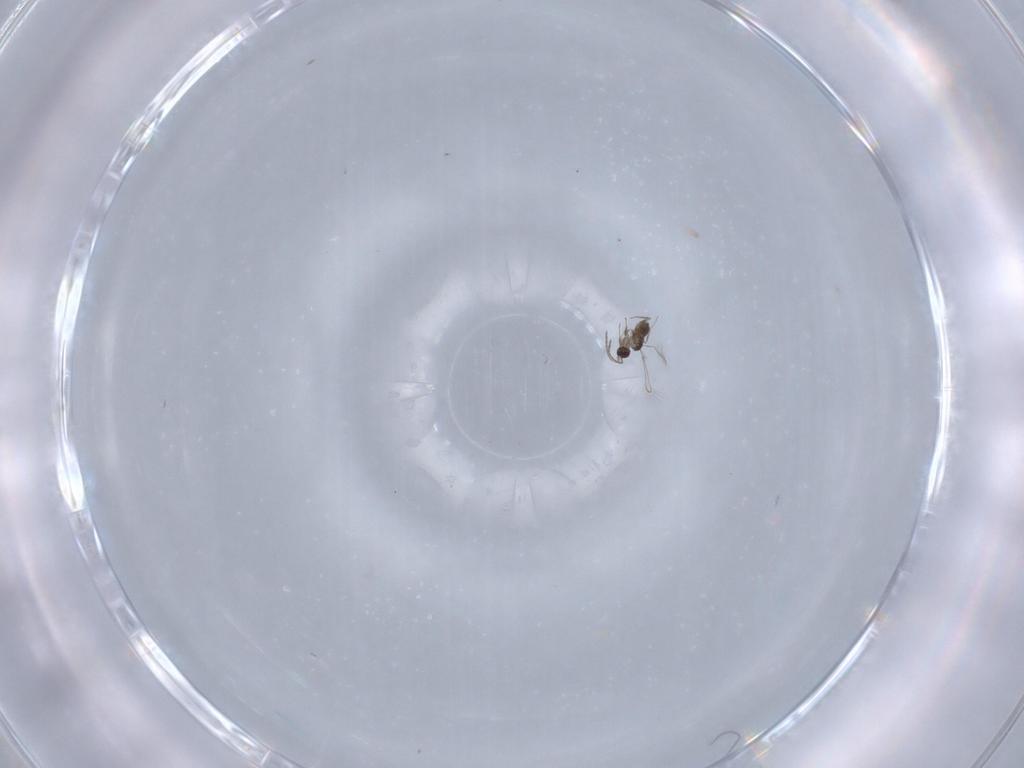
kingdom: Animalia
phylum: Arthropoda
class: Insecta
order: Hymenoptera
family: Mymaridae
